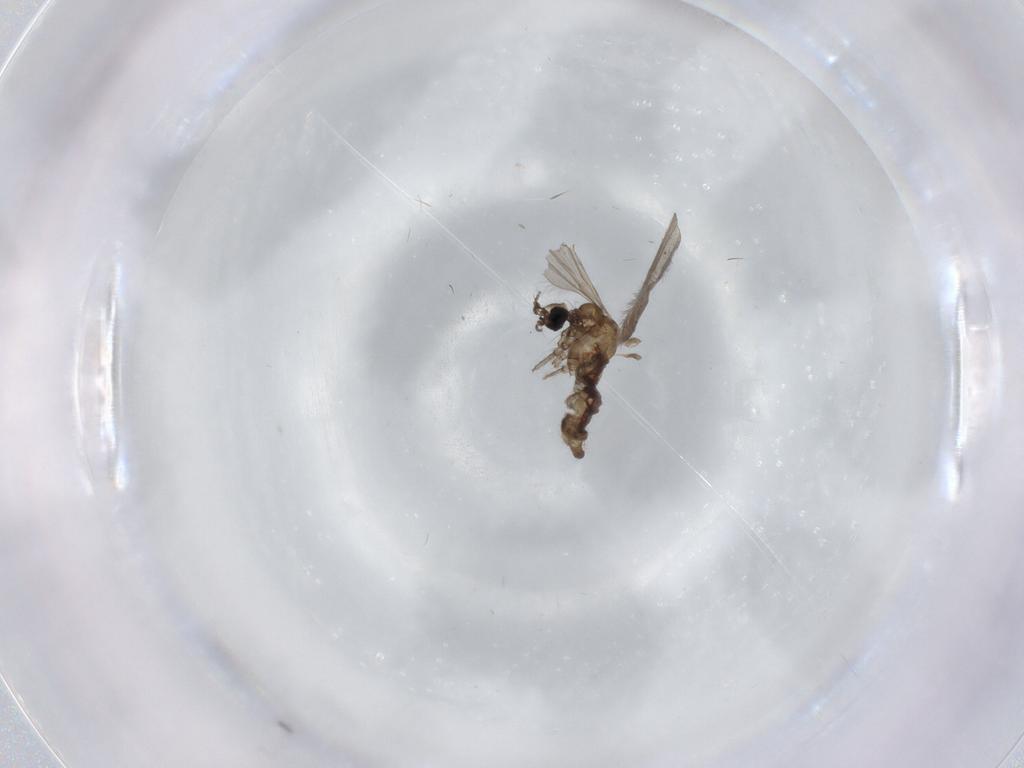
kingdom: Animalia
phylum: Arthropoda
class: Insecta
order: Diptera
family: Limoniidae
